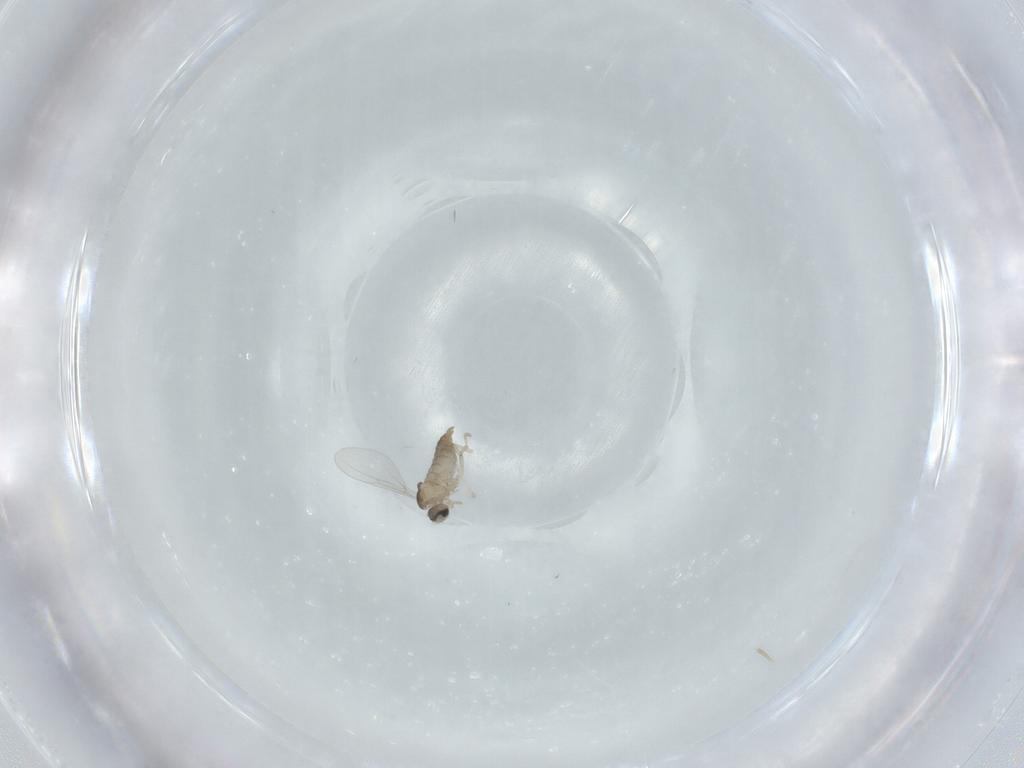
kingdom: Animalia
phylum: Arthropoda
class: Insecta
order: Diptera
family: Cecidomyiidae
